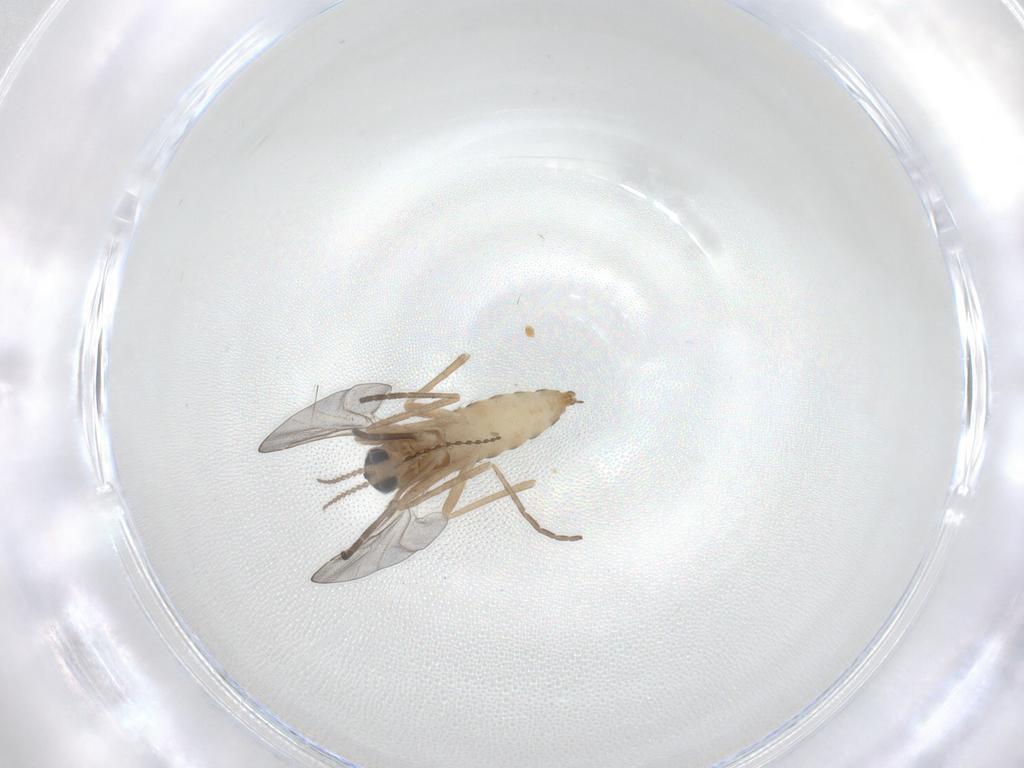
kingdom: Animalia
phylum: Arthropoda
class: Insecta
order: Diptera
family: Cecidomyiidae
